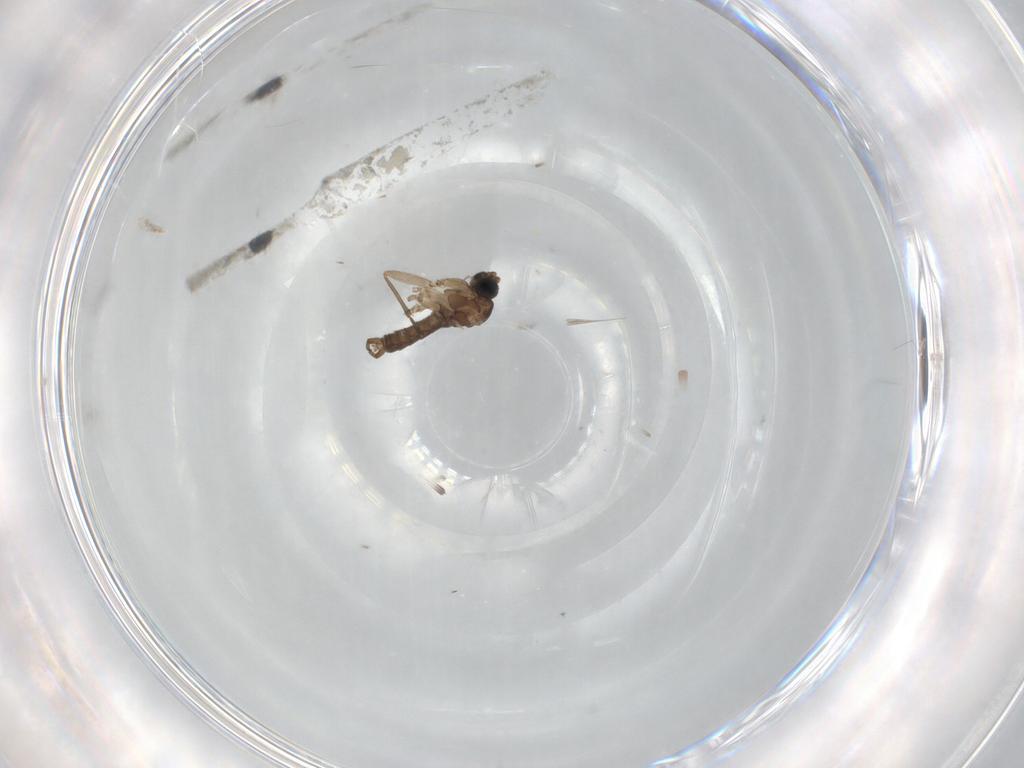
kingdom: Animalia
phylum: Arthropoda
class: Insecta
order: Diptera
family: Sciaridae
